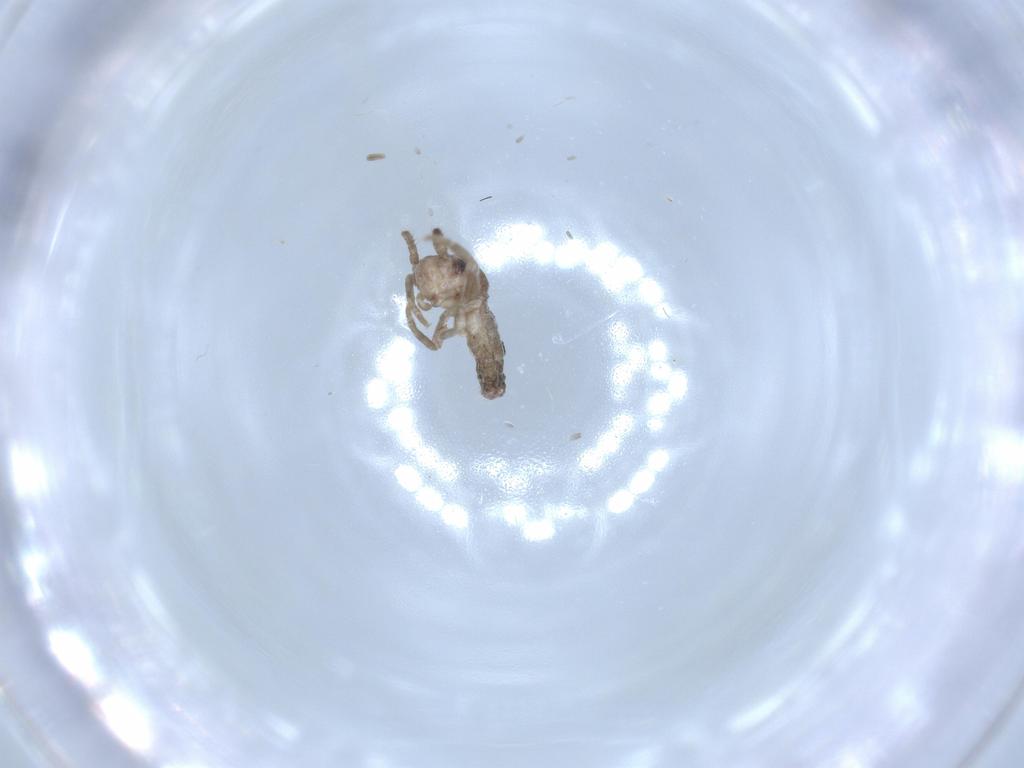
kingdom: Animalia
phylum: Arthropoda
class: Insecta
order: Orthoptera
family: Gryllidae
